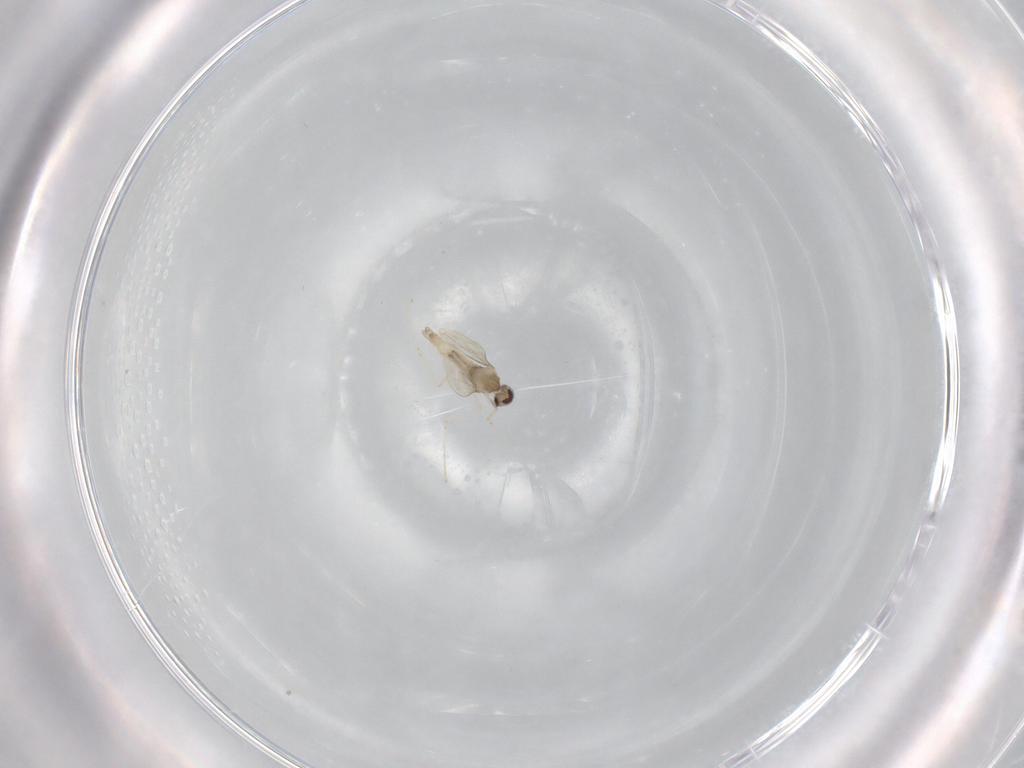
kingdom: Animalia
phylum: Arthropoda
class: Insecta
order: Diptera
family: Cecidomyiidae
